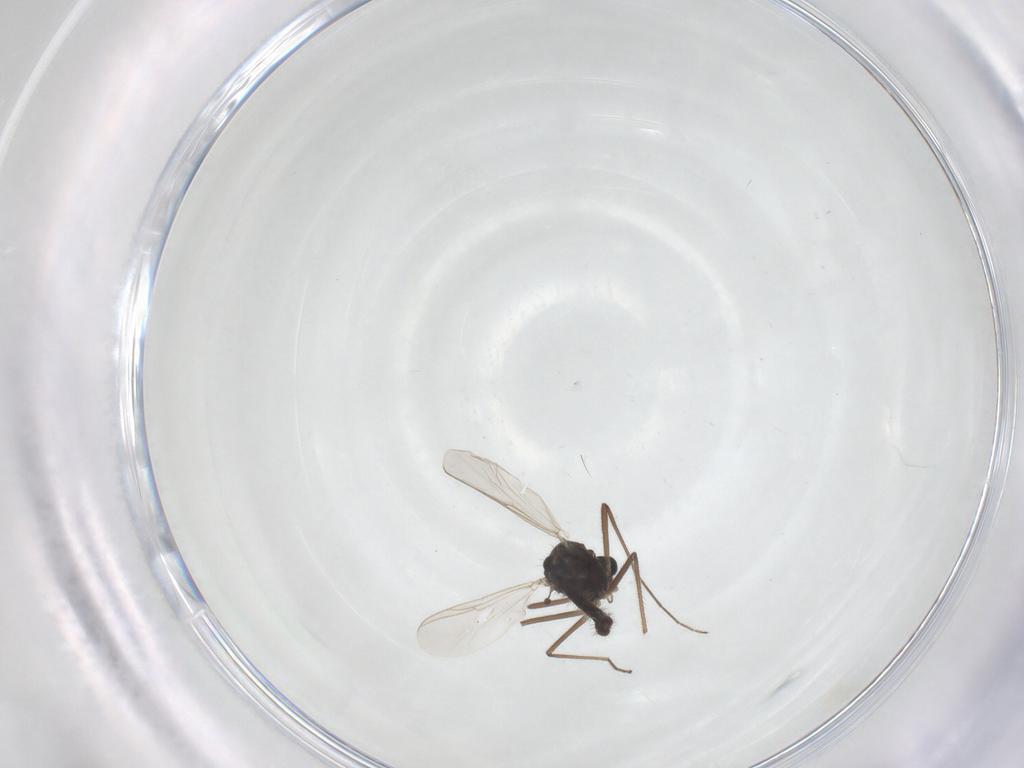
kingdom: Animalia
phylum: Arthropoda
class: Insecta
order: Diptera
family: Chironomidae
